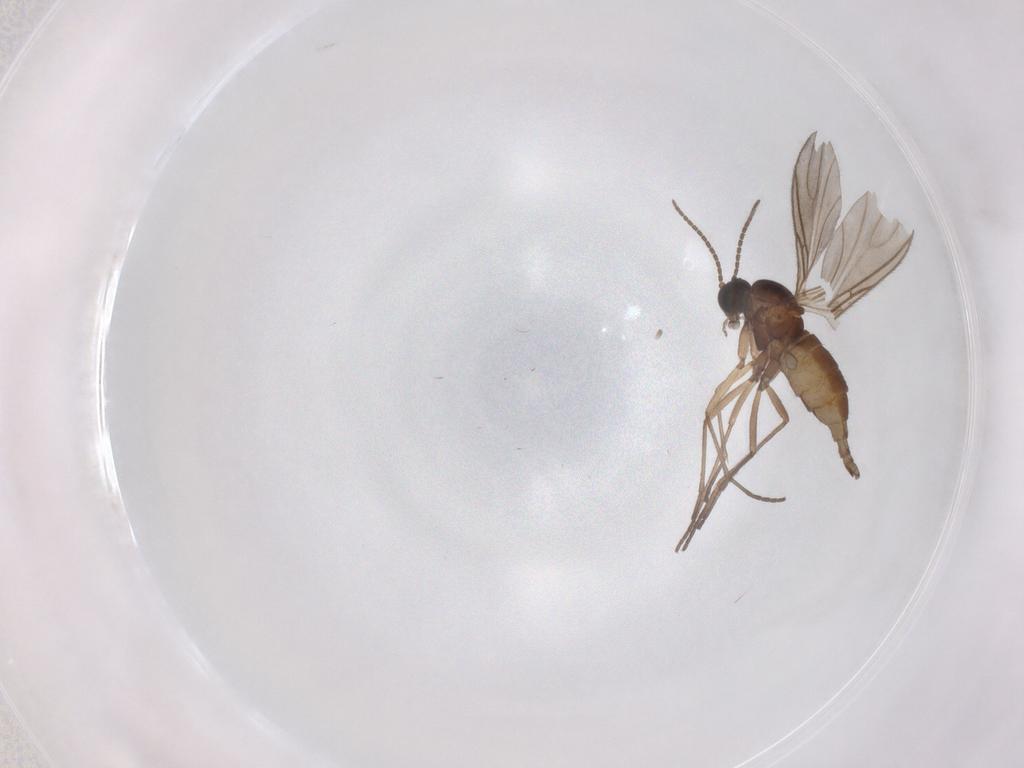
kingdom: Animalia
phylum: Arthropoda
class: Insecta
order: Diptera
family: Sciaridae
